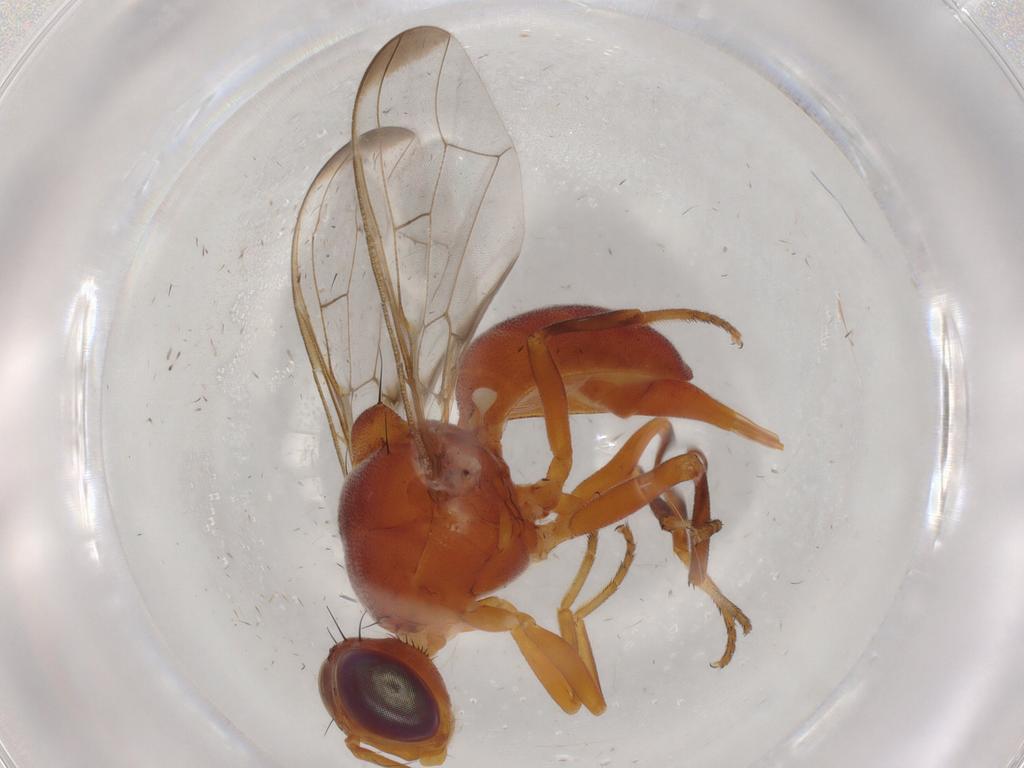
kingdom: Animalia
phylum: Arthropoda
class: Insecta
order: Diptera
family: Tephritidae
